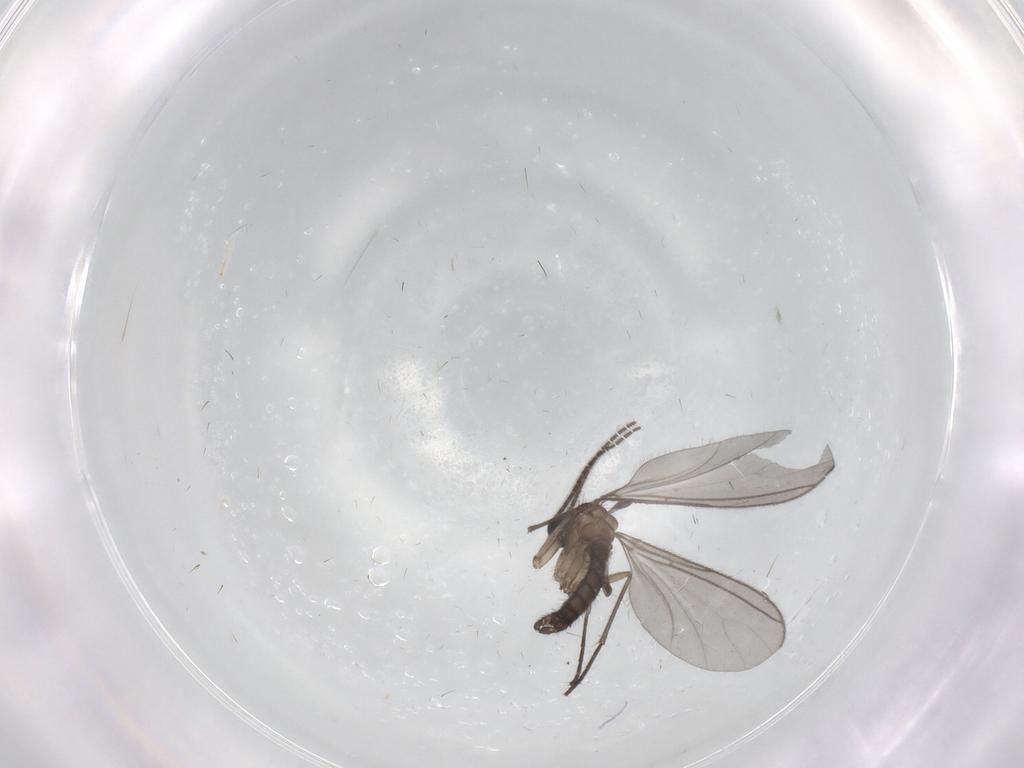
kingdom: Animalia
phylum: Arthropoda
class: Insecta
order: Diptera
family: Sciaridae
